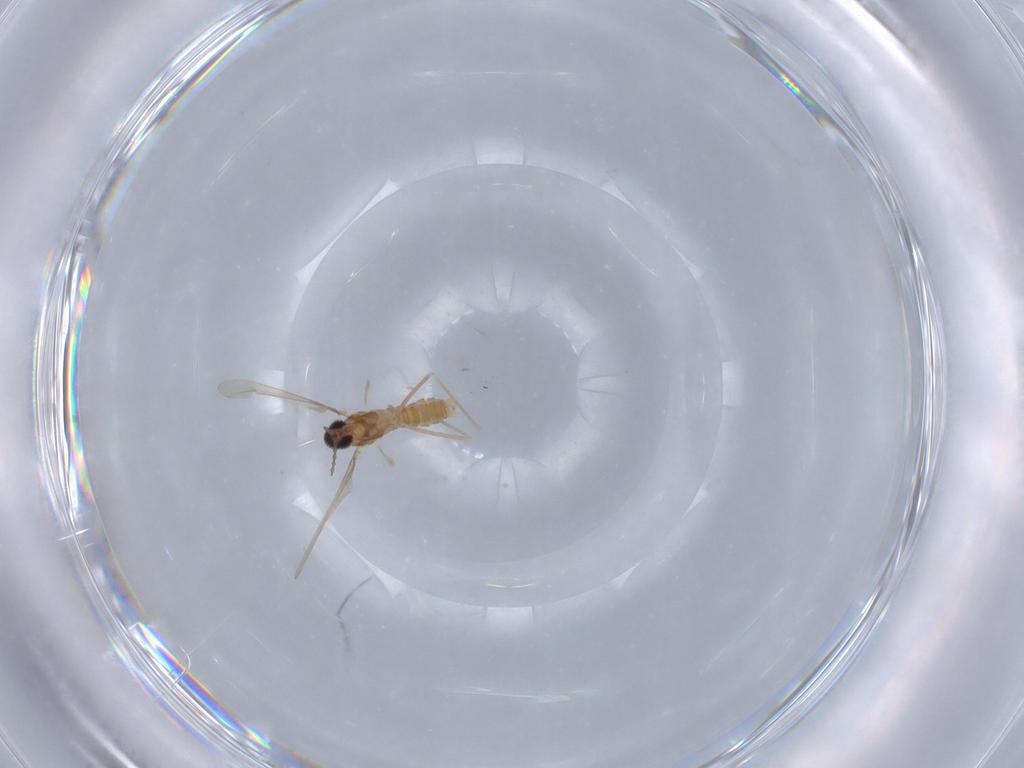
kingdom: Animalia
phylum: Arthropoda
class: Insecta
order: Diptera
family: Cecidomyiidae
